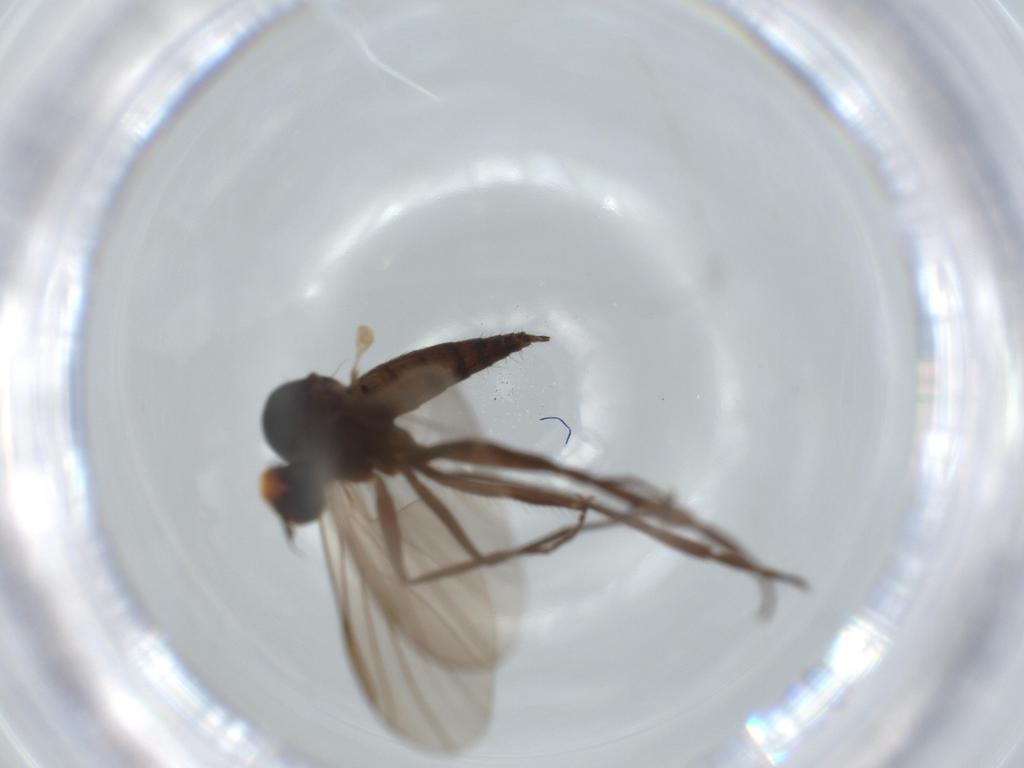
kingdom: Animalia
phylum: Arthropoda
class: Insecta
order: Diptera
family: Hybotidae
